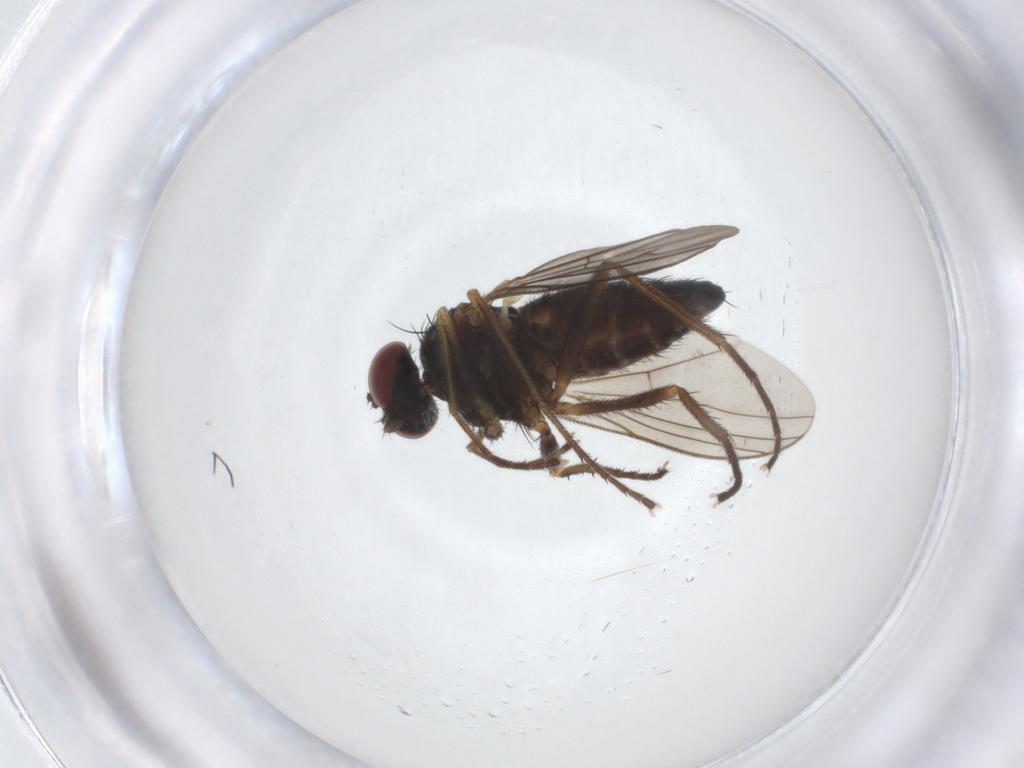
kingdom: Animalia
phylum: Arthropoda
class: Insecta
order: Diptera
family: Dolichopodidae
